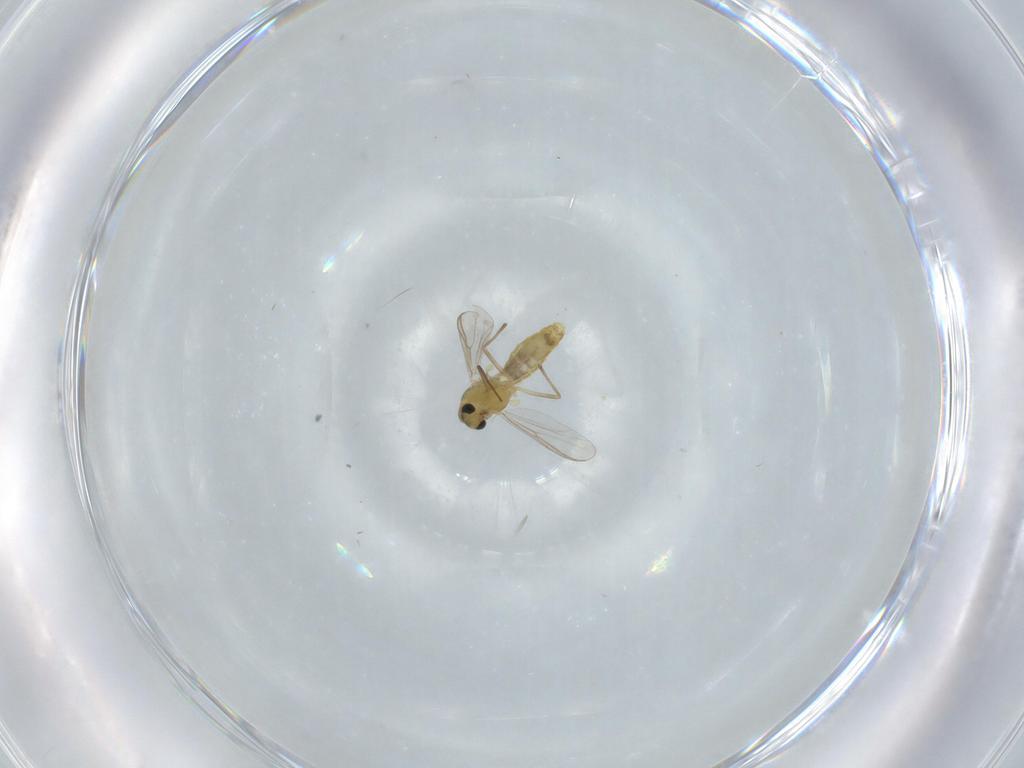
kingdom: Animalia
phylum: Arthropoda
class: Insecta
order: Diptera
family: Chironomidae
